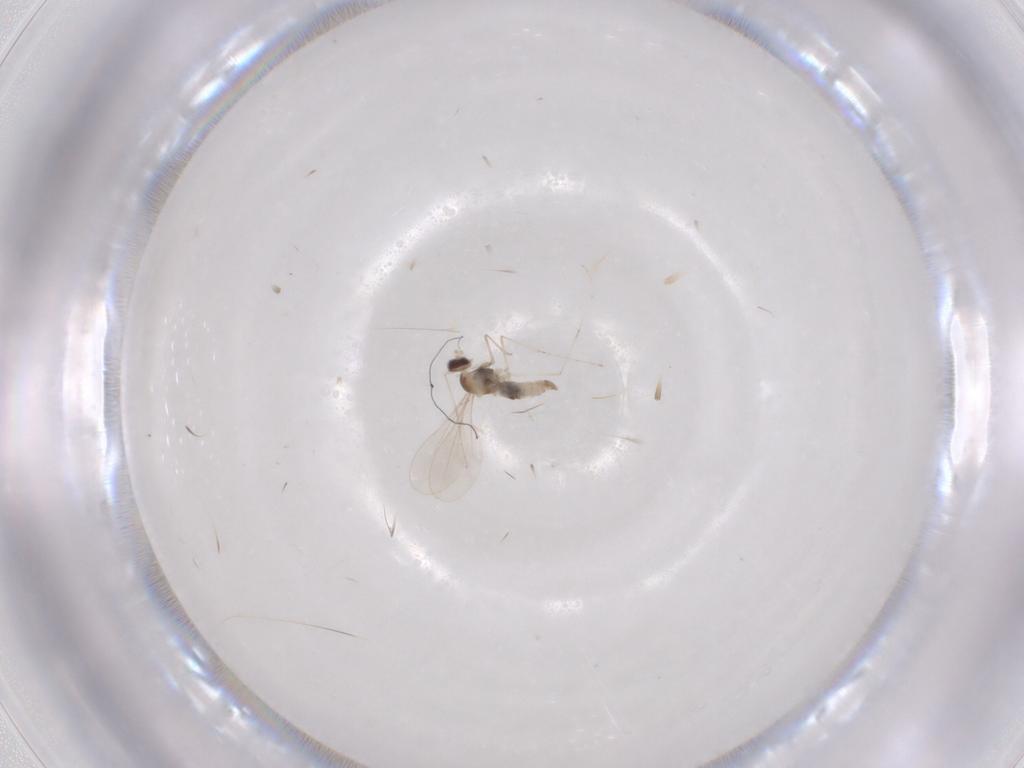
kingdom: Animalia
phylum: Arthropoda
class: Insecta
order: Diptera
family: Cecidomyiidae
